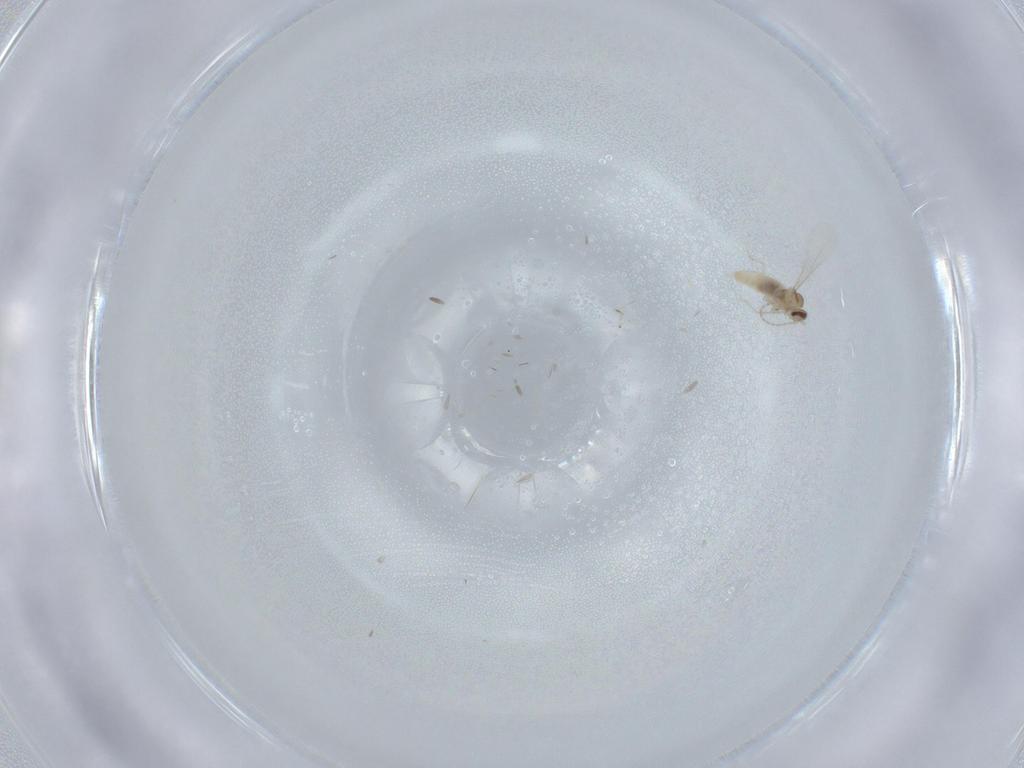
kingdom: Animalia
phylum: Arthropoda
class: Insecta
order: Diptera
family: Cecidomyiidae
